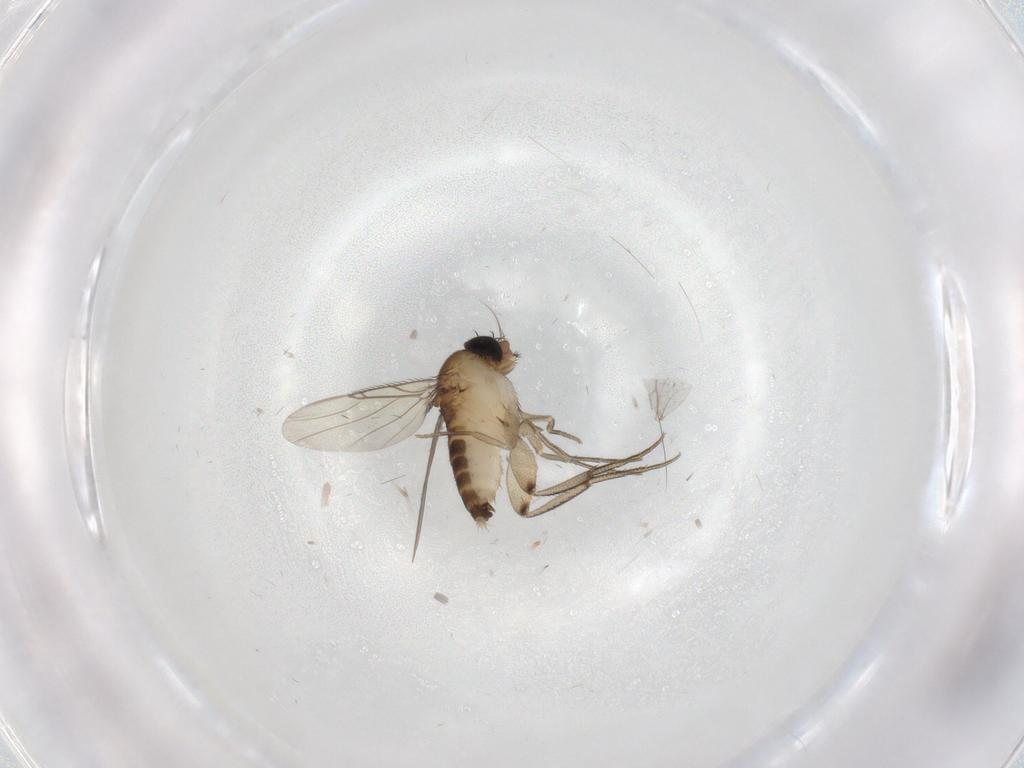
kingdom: Animalia
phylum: Arthropoda
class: Insecta
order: Diptera
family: Phoridae
